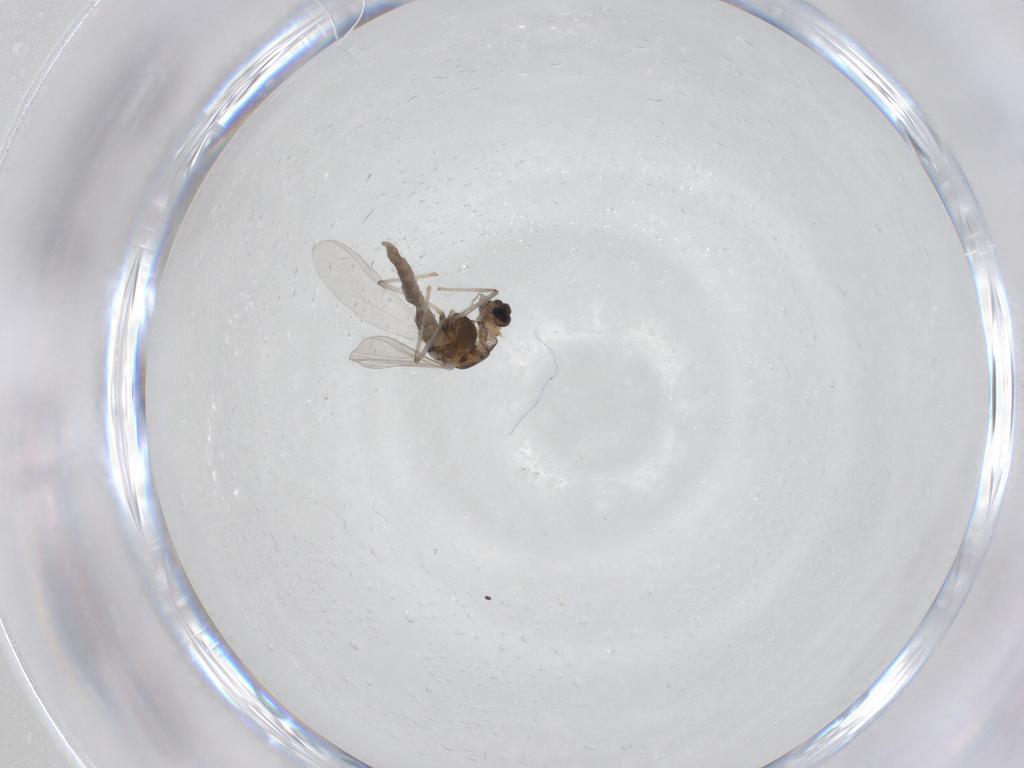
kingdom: Animalia
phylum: Arthropoda
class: Insecta
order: Diptera
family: Chironomidae
